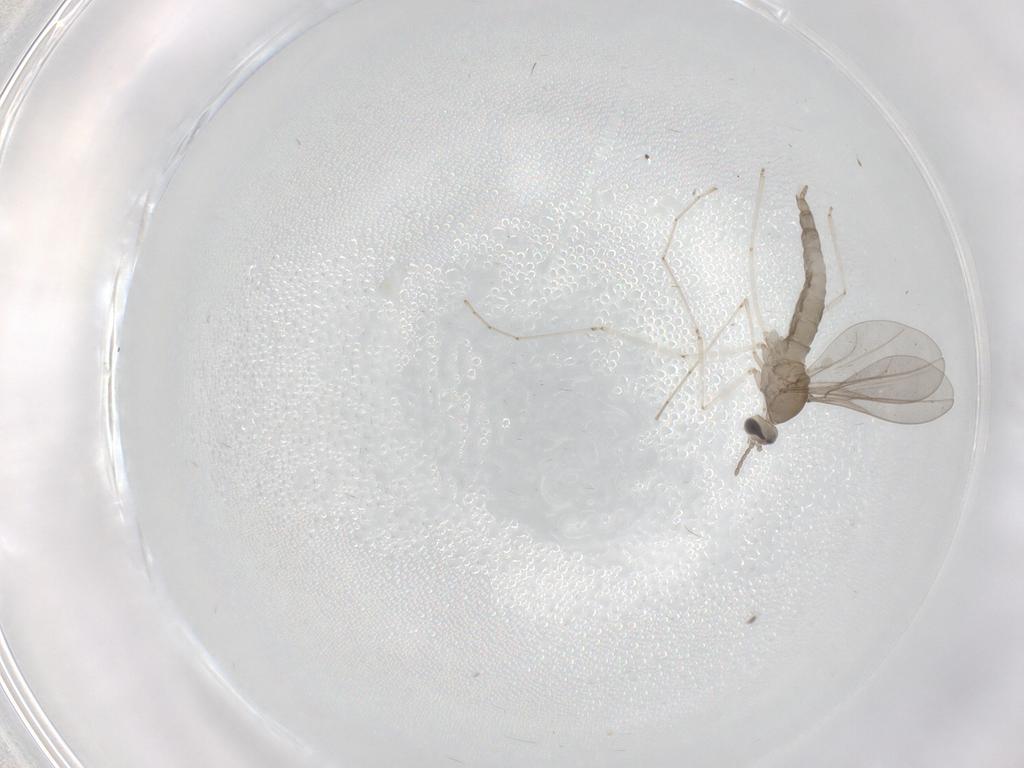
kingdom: Animalia
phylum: Arthropoda
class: Insecta
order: Diptera
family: Cecidomyiidae
